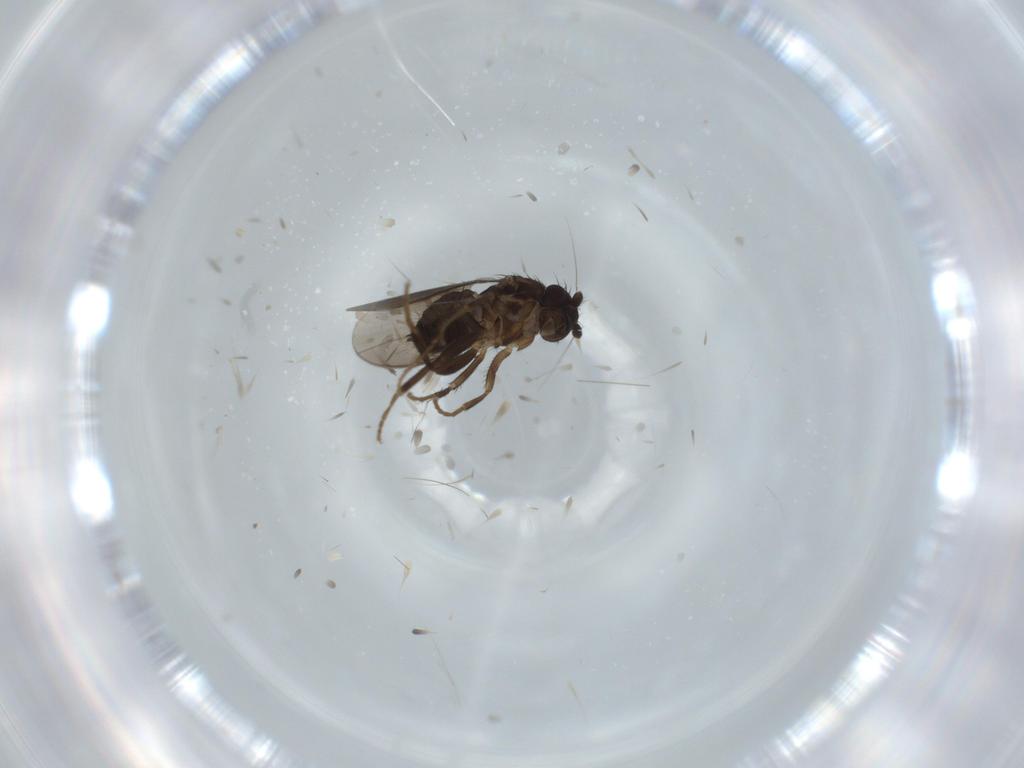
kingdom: Animalia
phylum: Arthropoda
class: Insecta
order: Diptera
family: Sphaeroceridae
